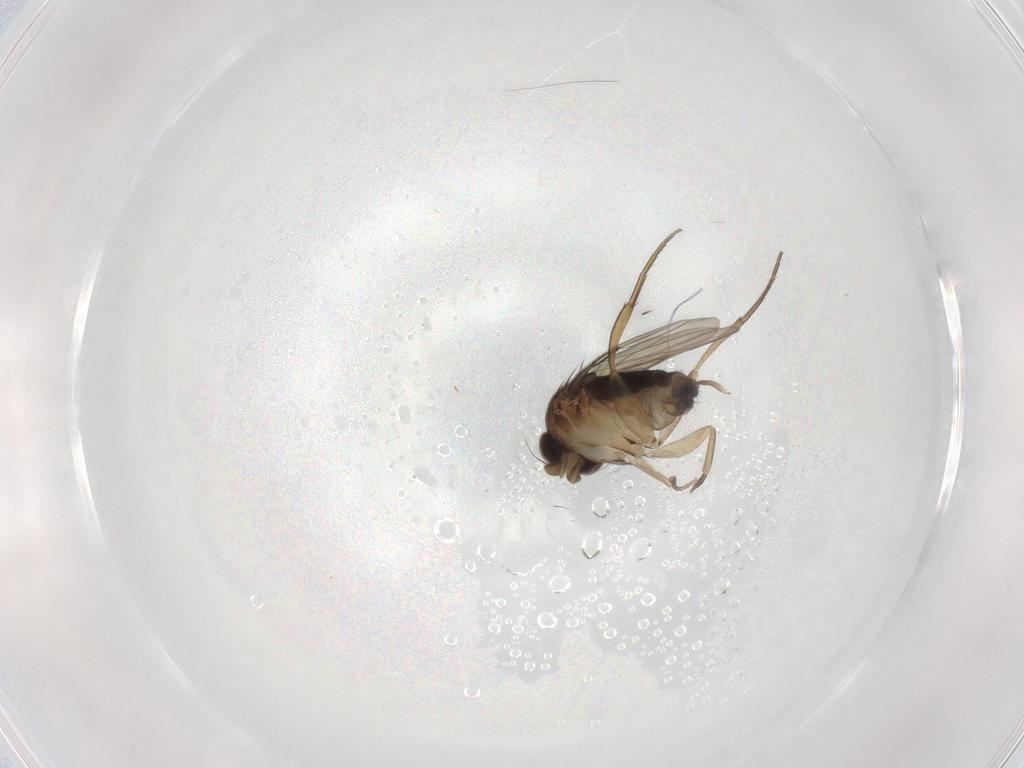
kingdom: Animalia
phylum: Arthropoda
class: Insecta
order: Diptera
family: Phoridae
